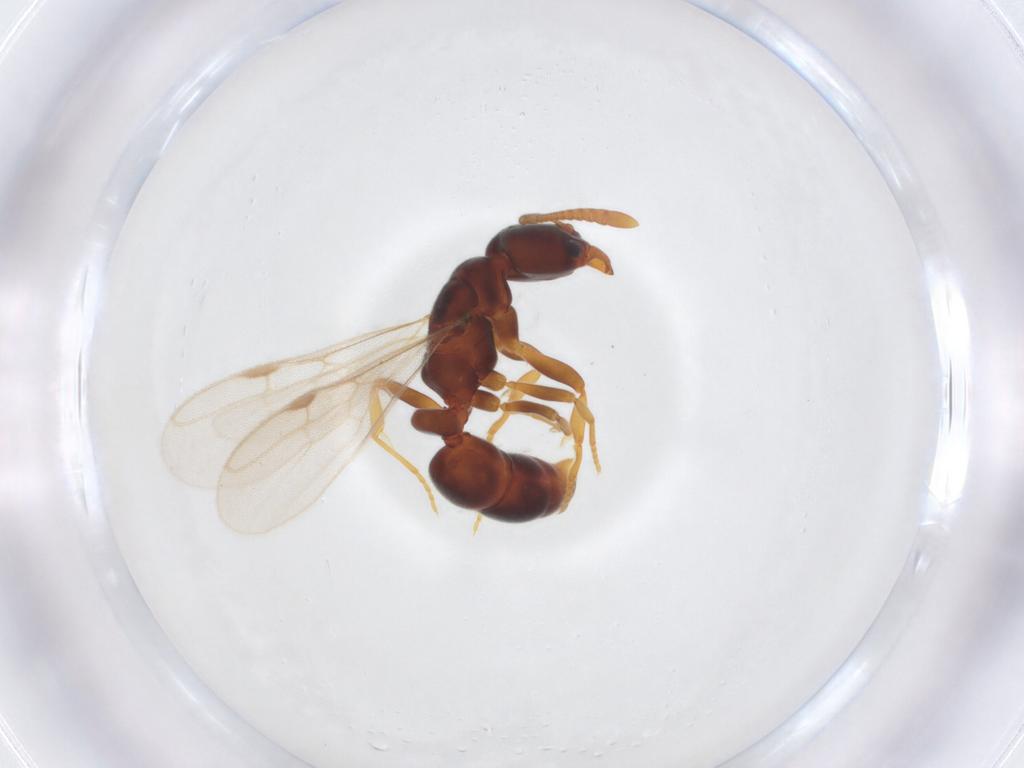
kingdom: Animalia
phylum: Arthropoda
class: Insecta
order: Hymenoptera
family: Formicidae
